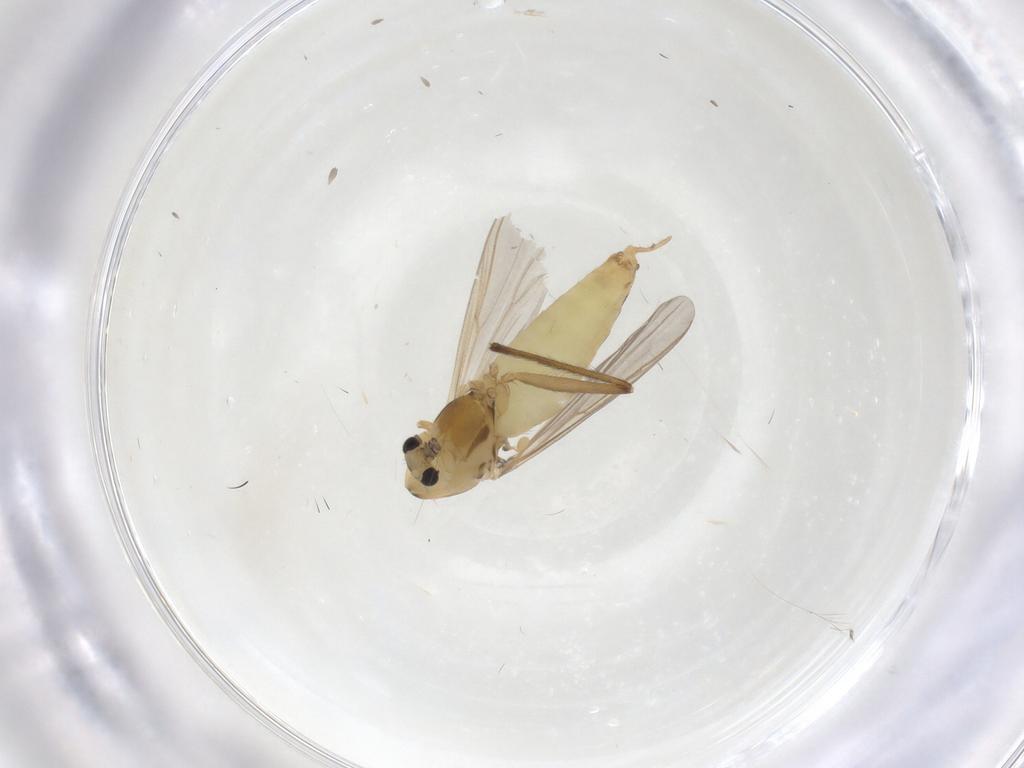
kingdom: Animalia
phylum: Arthropoda
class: Insecta
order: Diptera
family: Chironomidae
